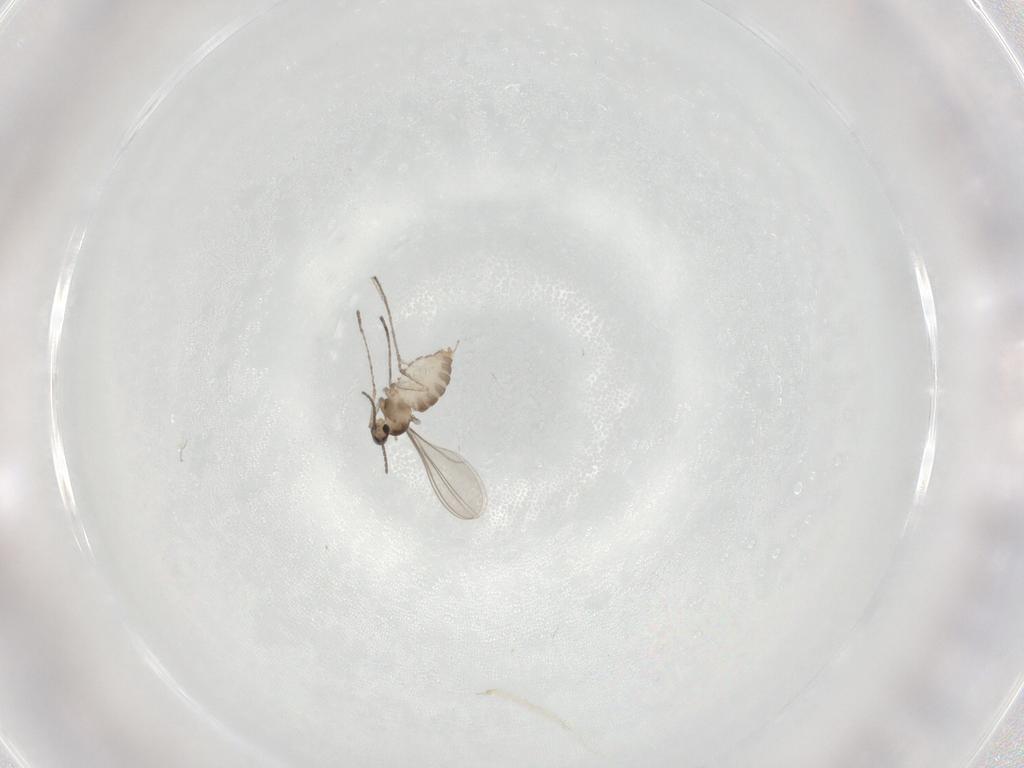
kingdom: Animalia
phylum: Arthropoda
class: Insecta
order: Diptera
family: Cecidomyiidae
